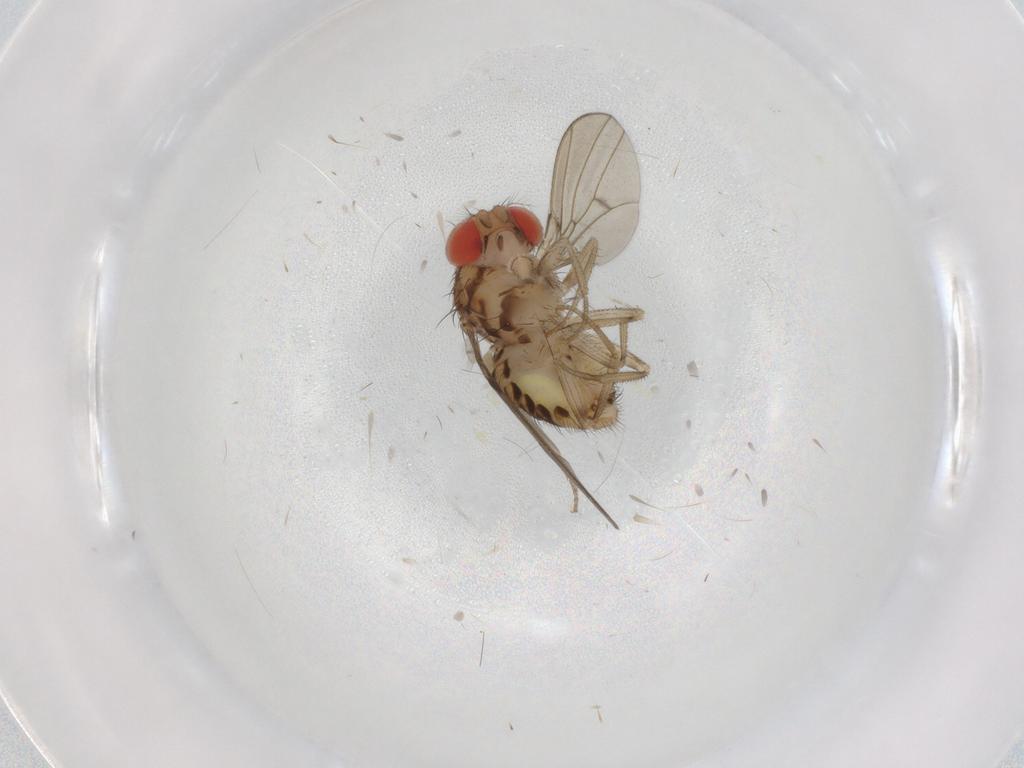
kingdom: Animalia
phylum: Arthropoda
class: Insecta
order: Diptera
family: Drosophilidae
